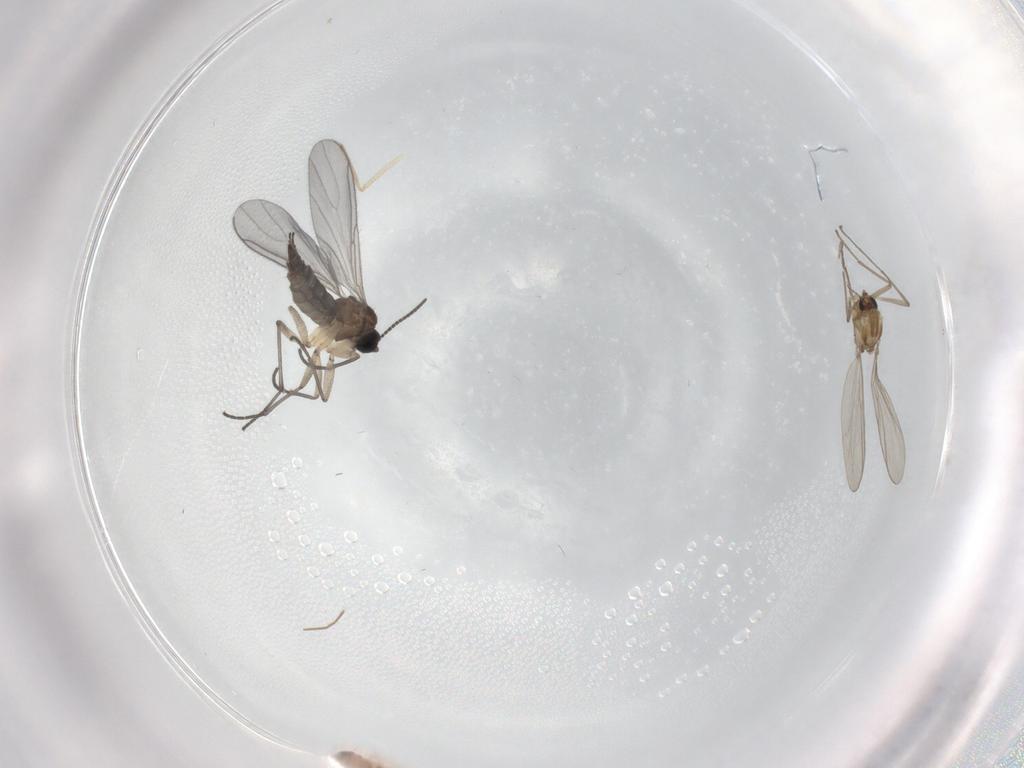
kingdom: Animalia
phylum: Arthropoda
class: Insecta
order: Diptera
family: Sciaridae
